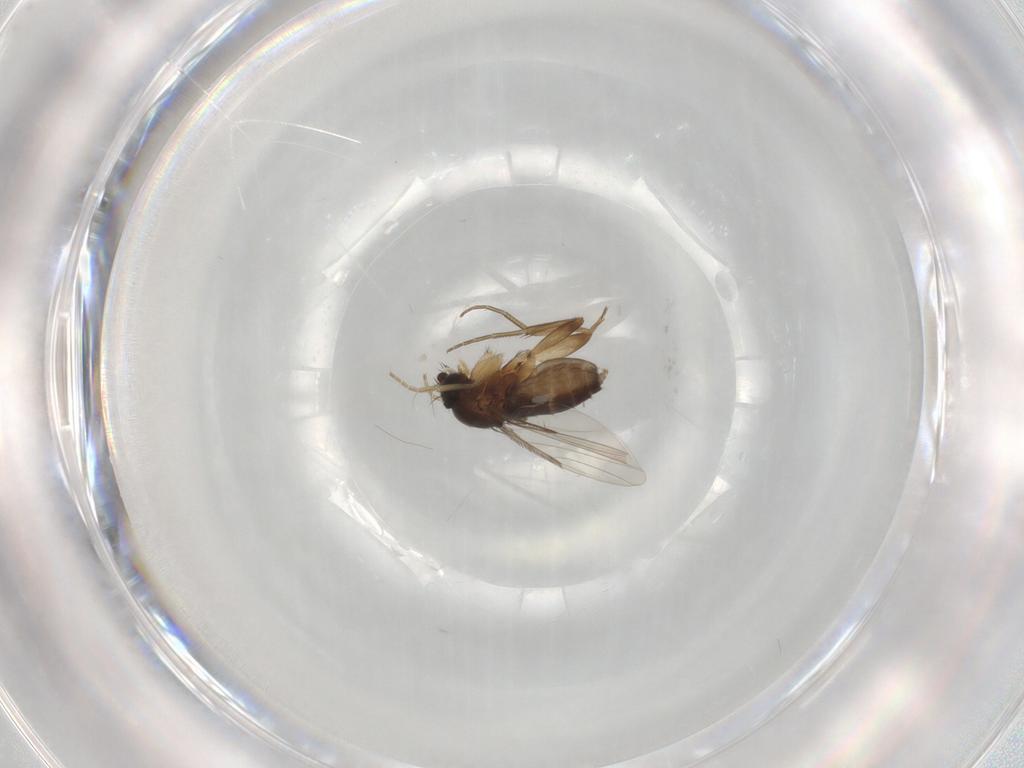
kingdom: Animalia
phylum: Arthropoda
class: Insecta
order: Diptera
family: Phoridae
